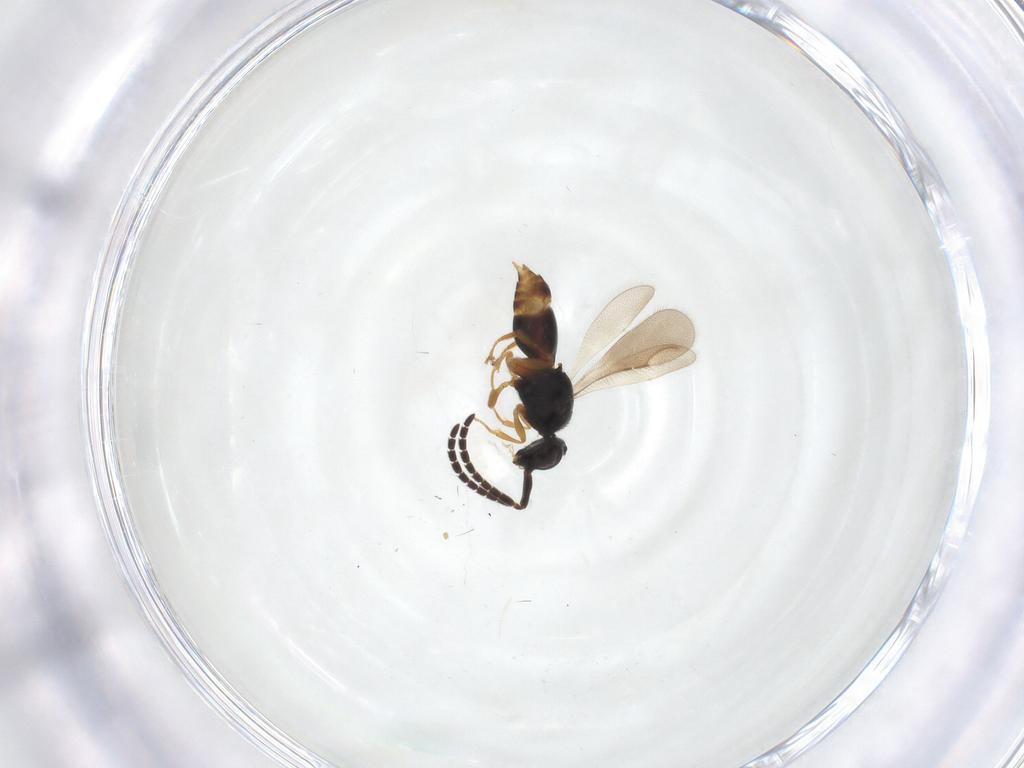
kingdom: Animalia
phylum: Arthropoda
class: Insecta
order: Hymenoptera
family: Ceraphronidae
